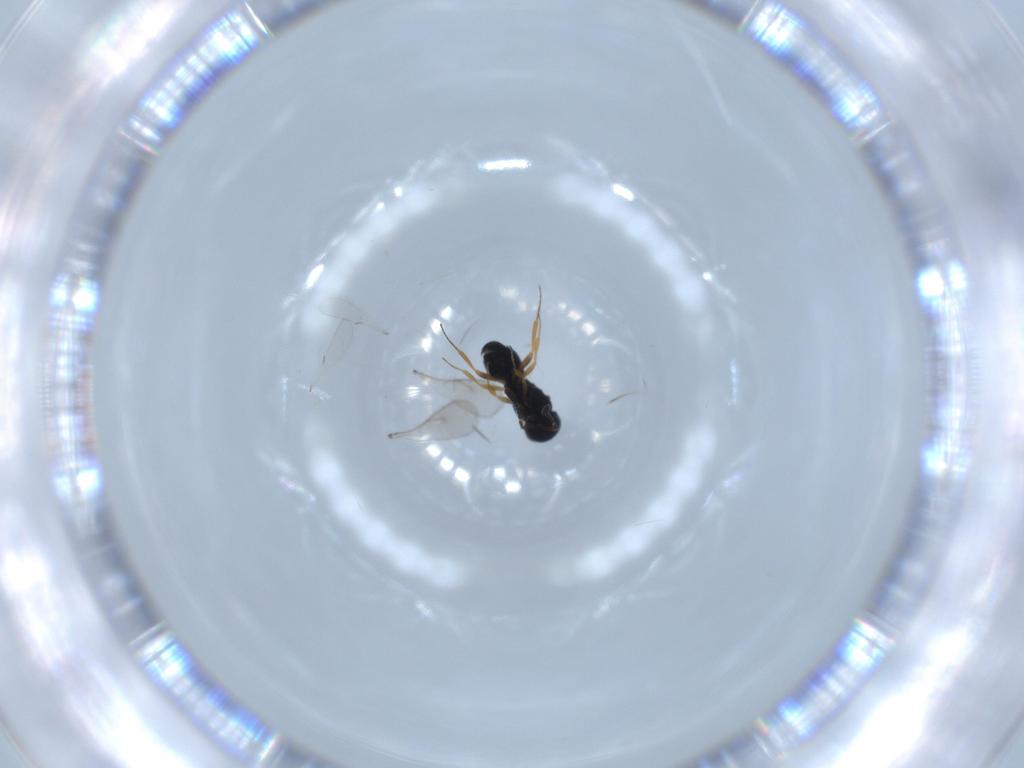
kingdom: Animalia
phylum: Arthropoda
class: Insecta
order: Hymenoptera
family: Scelionidae
